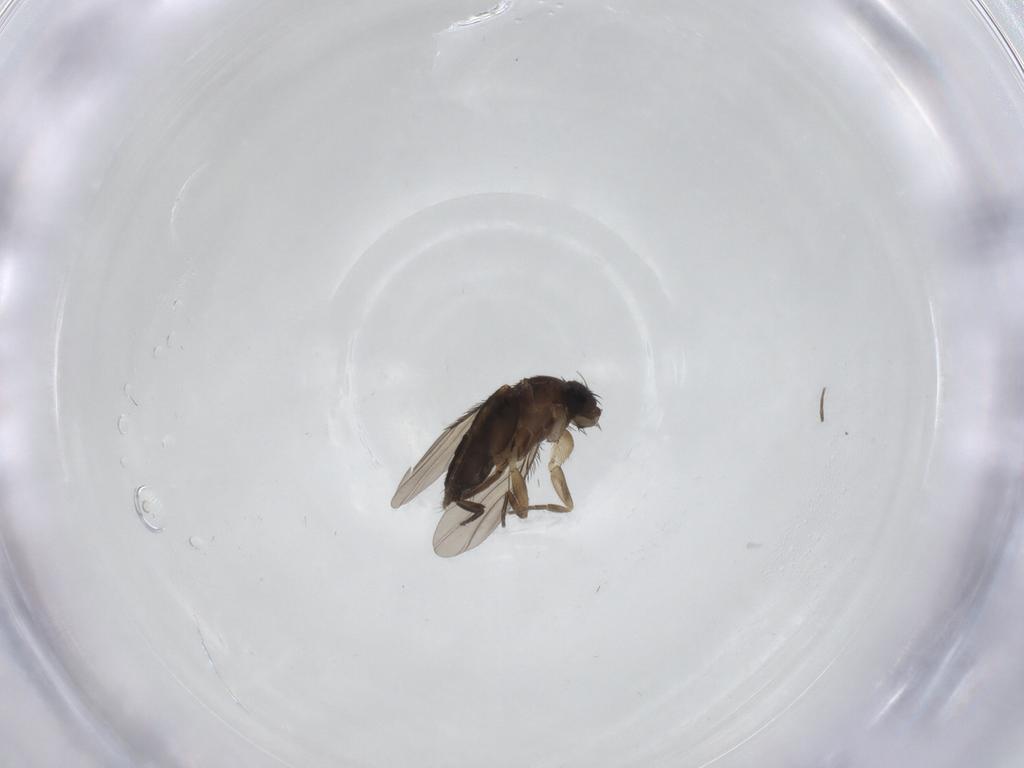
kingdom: Animalia
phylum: Arthropoda
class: Insecta
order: Diptera
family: Phoridae
